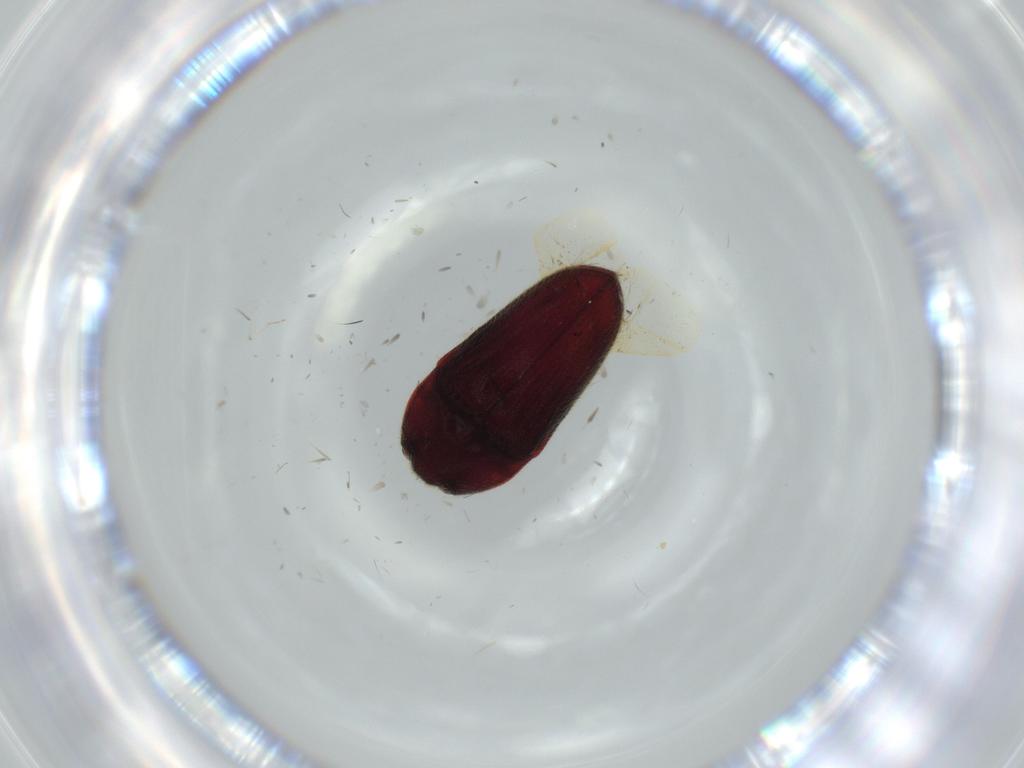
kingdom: Animalia
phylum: Arthropoda
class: Insecta
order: Coleoptera
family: Throscidae
